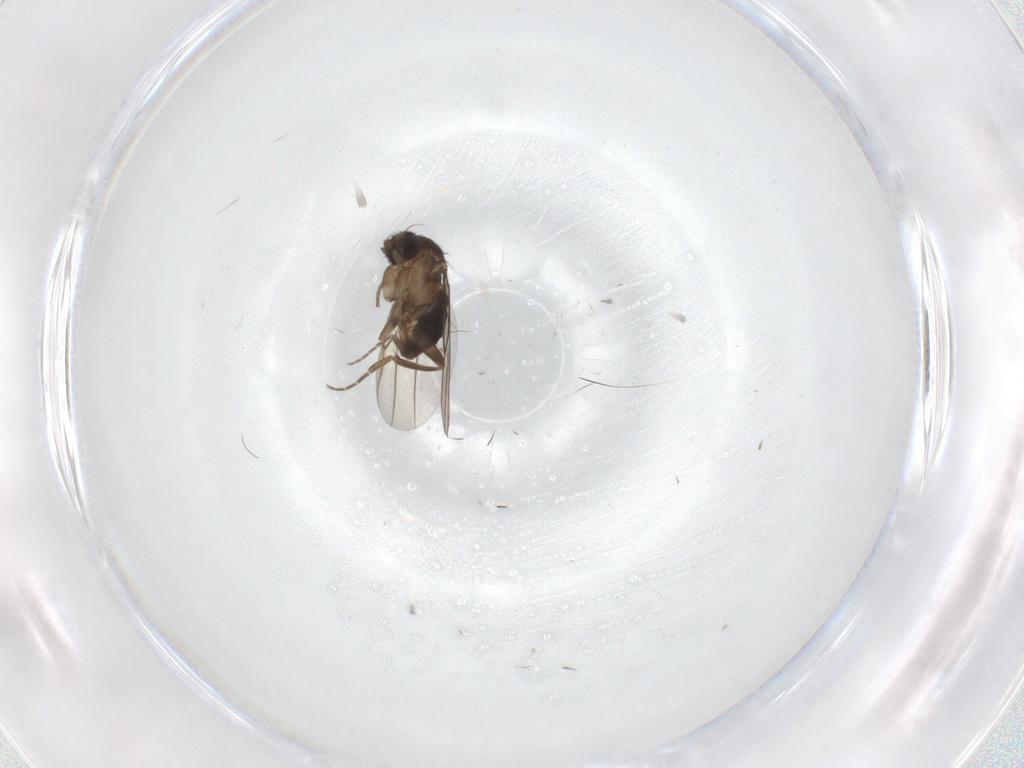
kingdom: Animalia
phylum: Arthropoda
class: Insecta
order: Diptera
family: Phoridae
